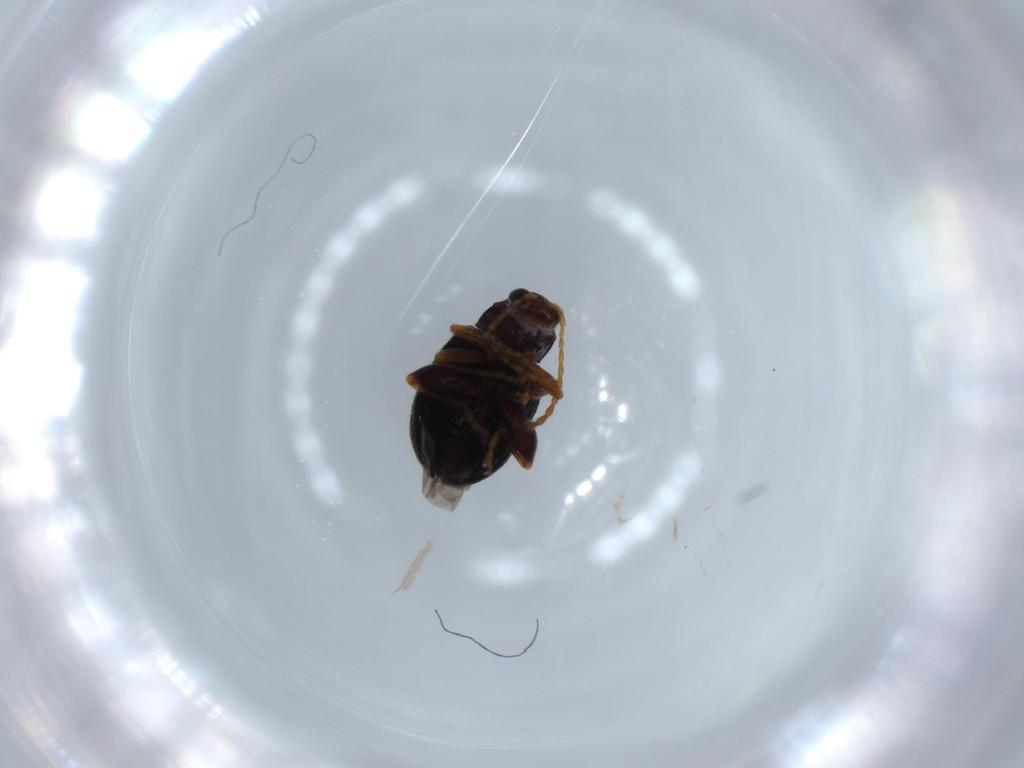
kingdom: Animalia
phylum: Arthropoda
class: Insecta
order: Coleoptera
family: Chrysomelidae
